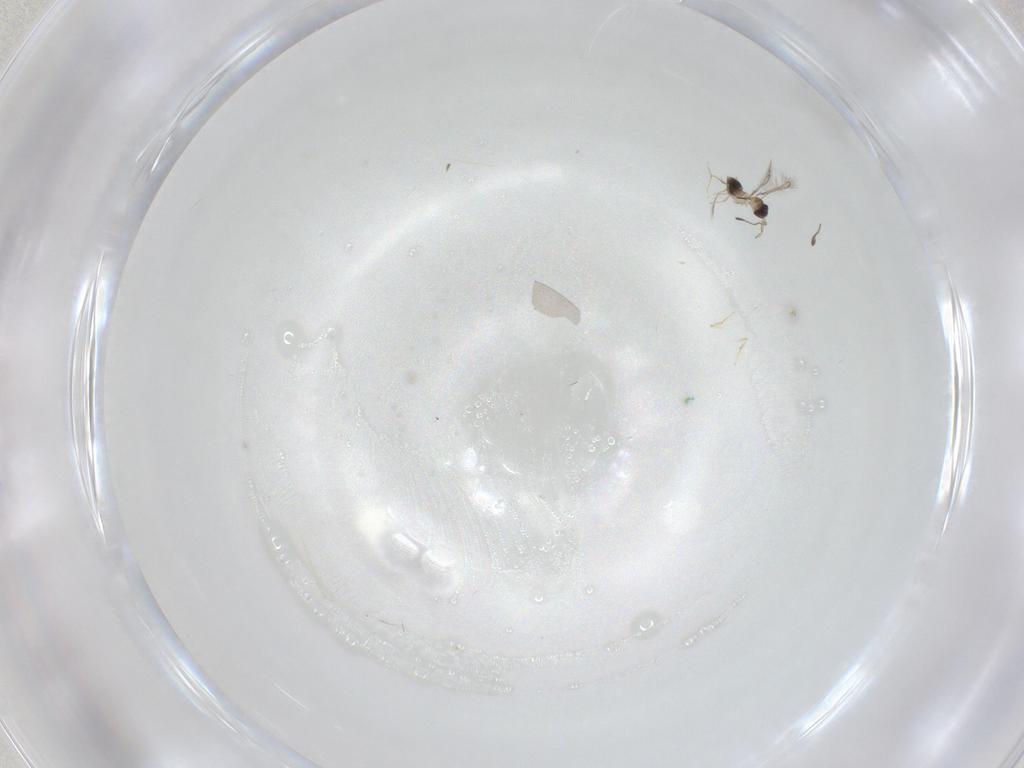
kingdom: Animalia
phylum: Arthropoda
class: Insecta
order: Diptera
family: Cecidomyiidae
